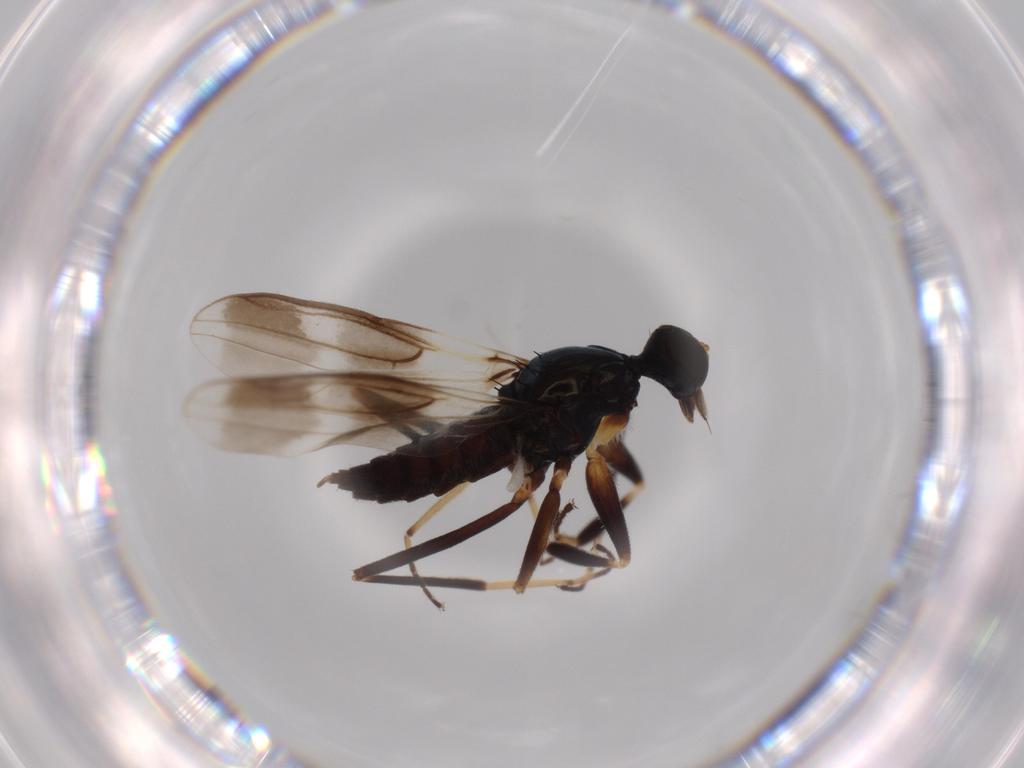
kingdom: Animalia
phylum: Arthropoda
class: Insecta
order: Diptera
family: Hybotidae
